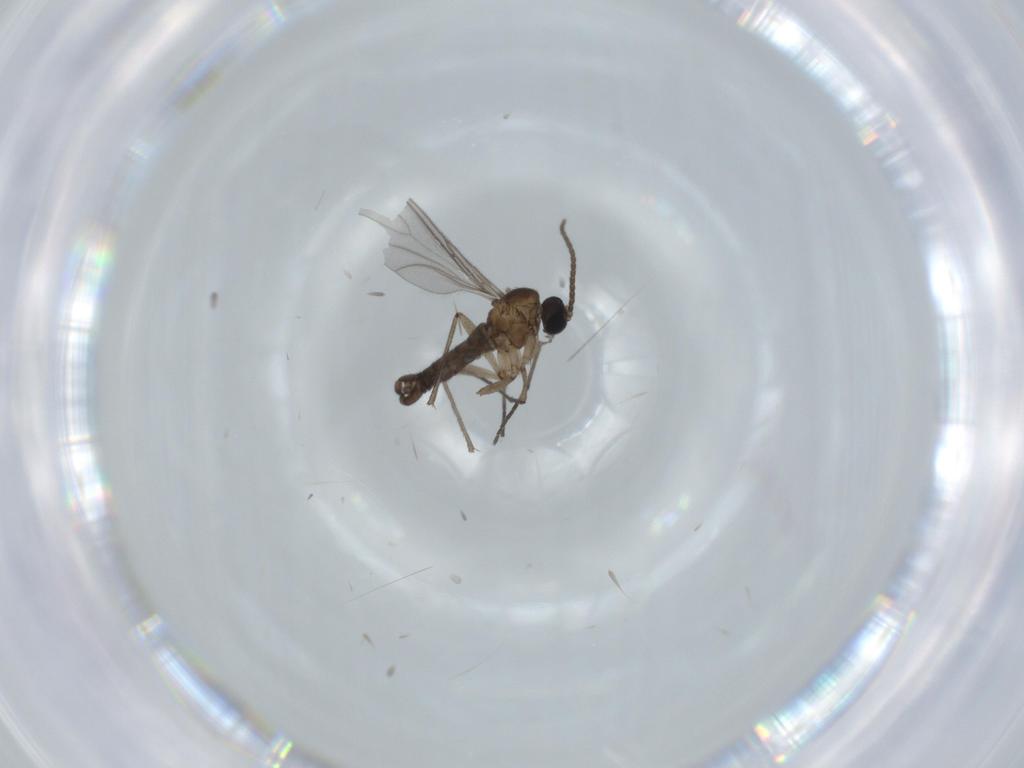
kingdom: Animalia
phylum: Arthropoda
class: Insecta
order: Diptera
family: Sciaridae
